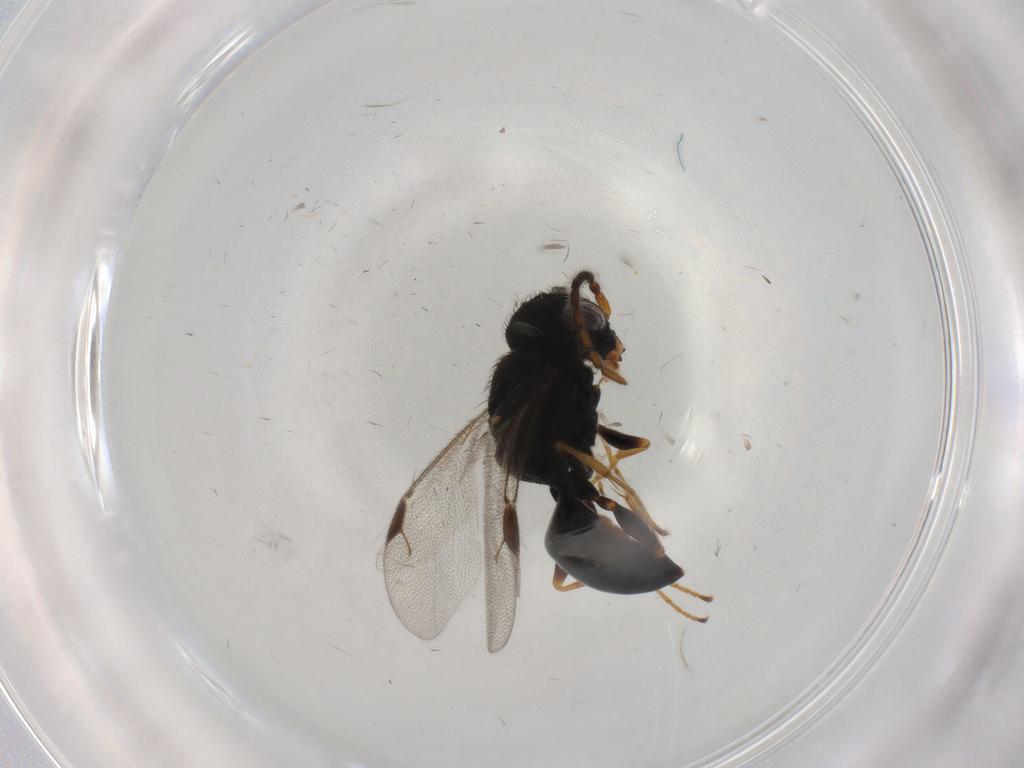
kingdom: Animalia
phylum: Arthropoda
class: Insecta
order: Hymenoptera
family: Dryinidae
